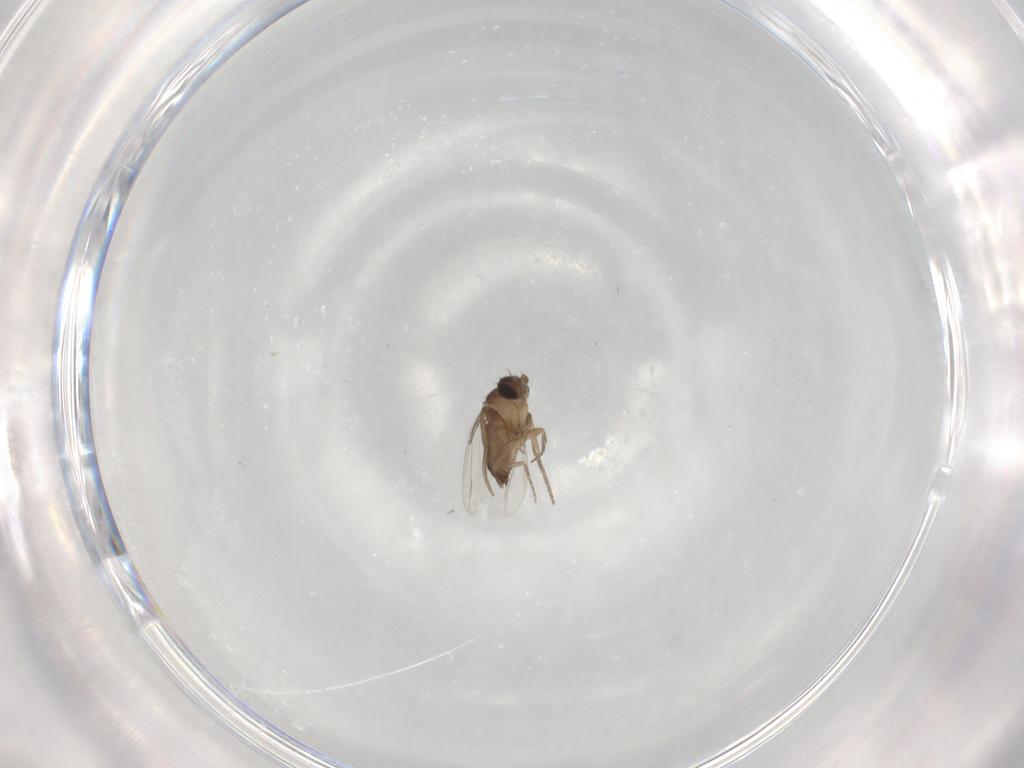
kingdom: Animalia
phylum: Arthropoda
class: Insecta
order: Diptera
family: Phoridae
